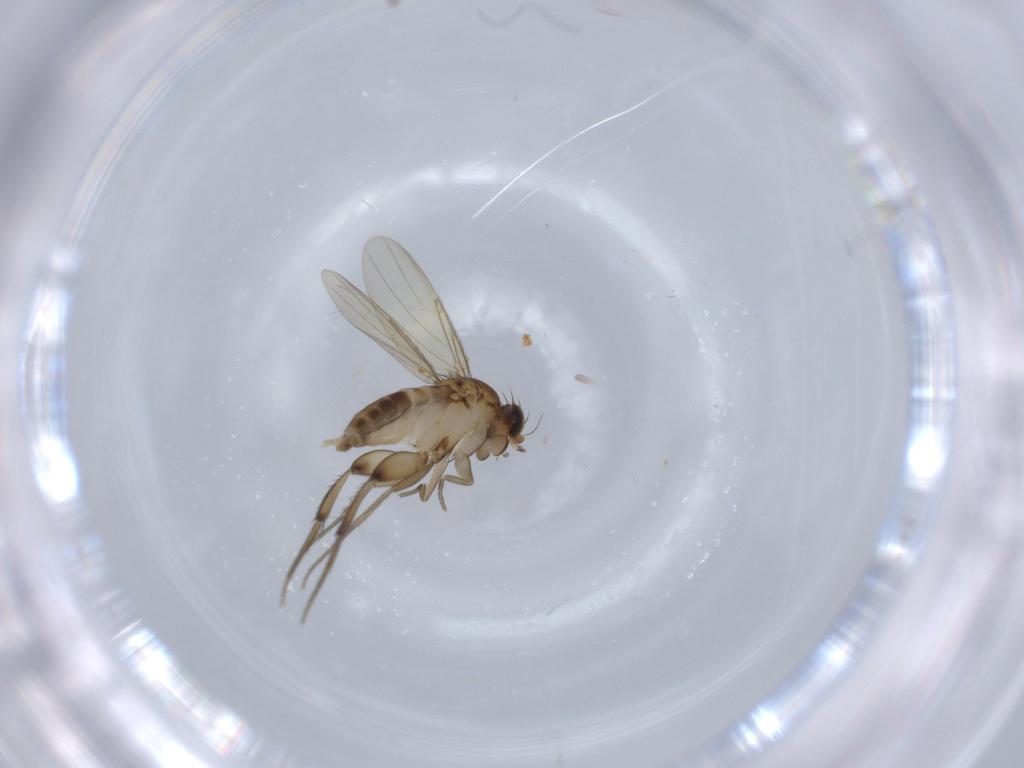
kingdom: Animalia
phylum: Arthropoda
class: Insecta
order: Diptera
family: Phoridae
